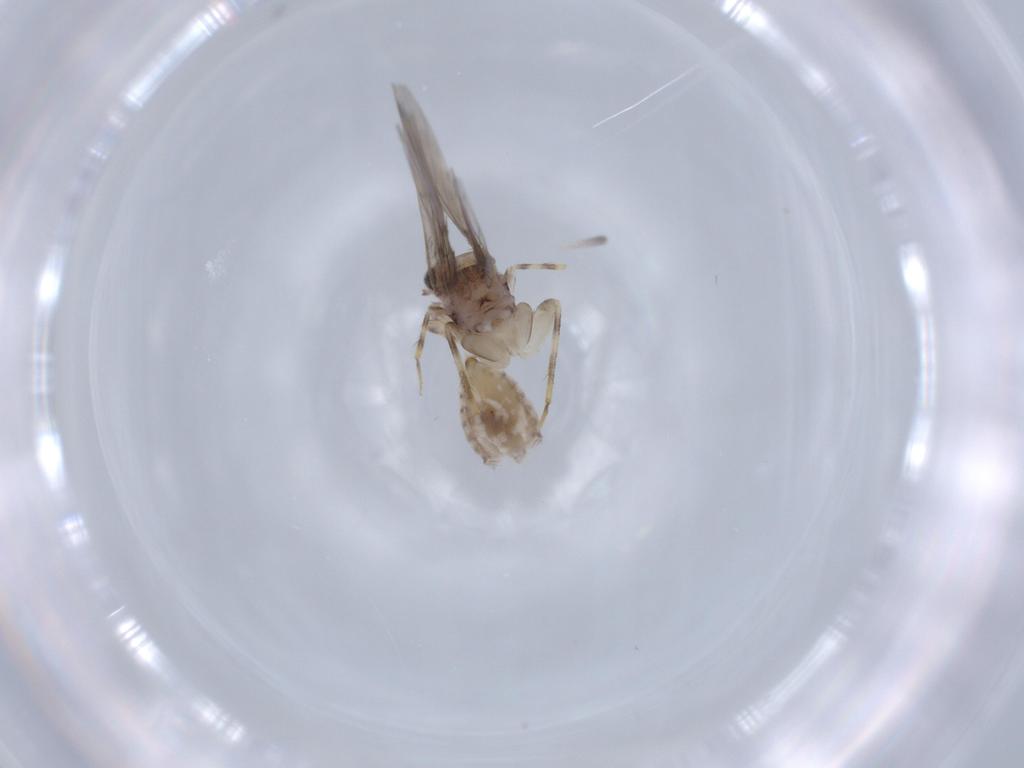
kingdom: Animalia
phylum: Arthropoda
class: Insecta
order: Psocodea
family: Lepidopsocidae
